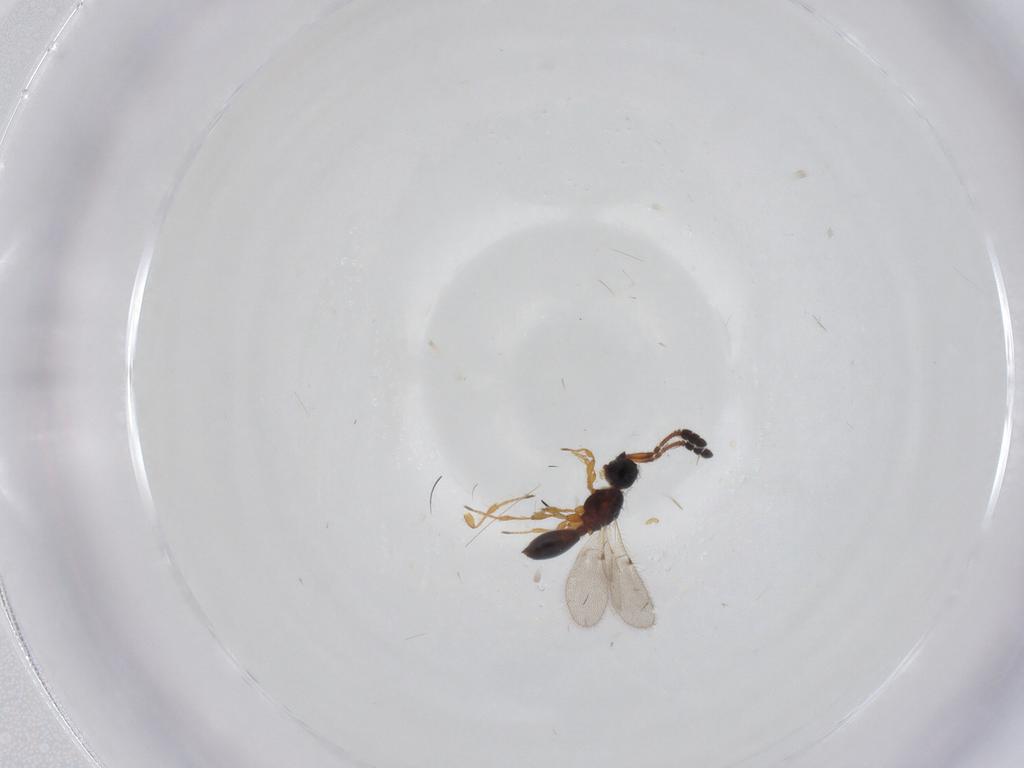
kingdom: Animalia
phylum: Arthropoda
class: Insecta
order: Hymenoptera
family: Diapriidae
